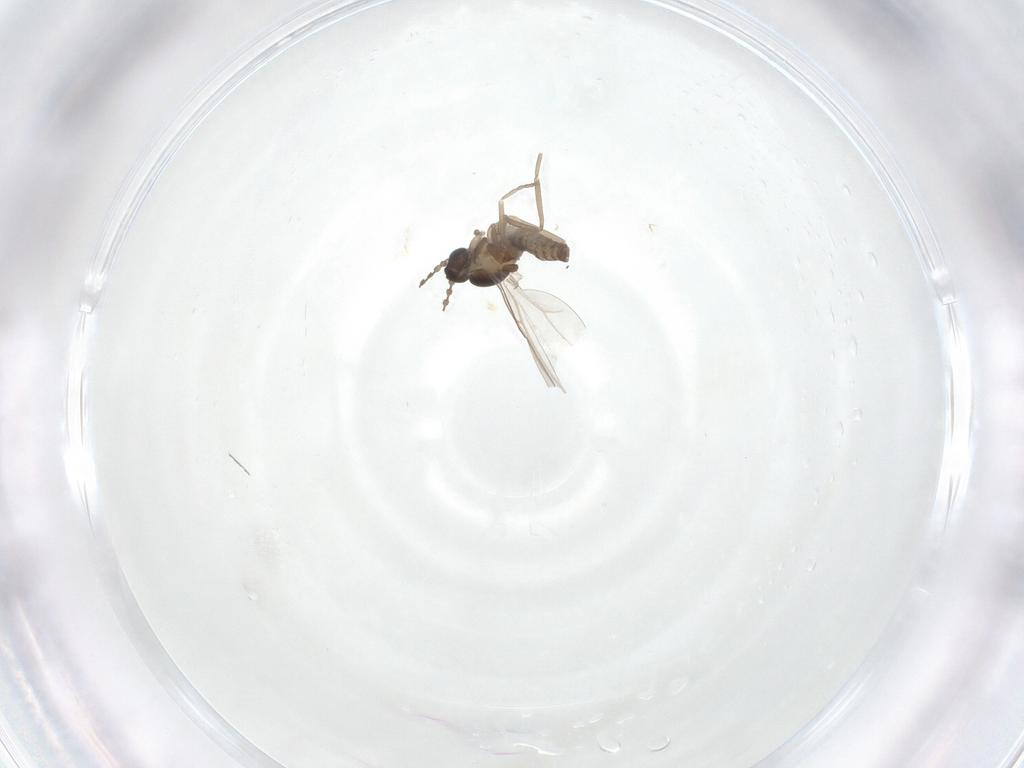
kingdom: Animalia
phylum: Arthropoda
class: Insecta
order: Diptera
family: Cecidomyiidae
